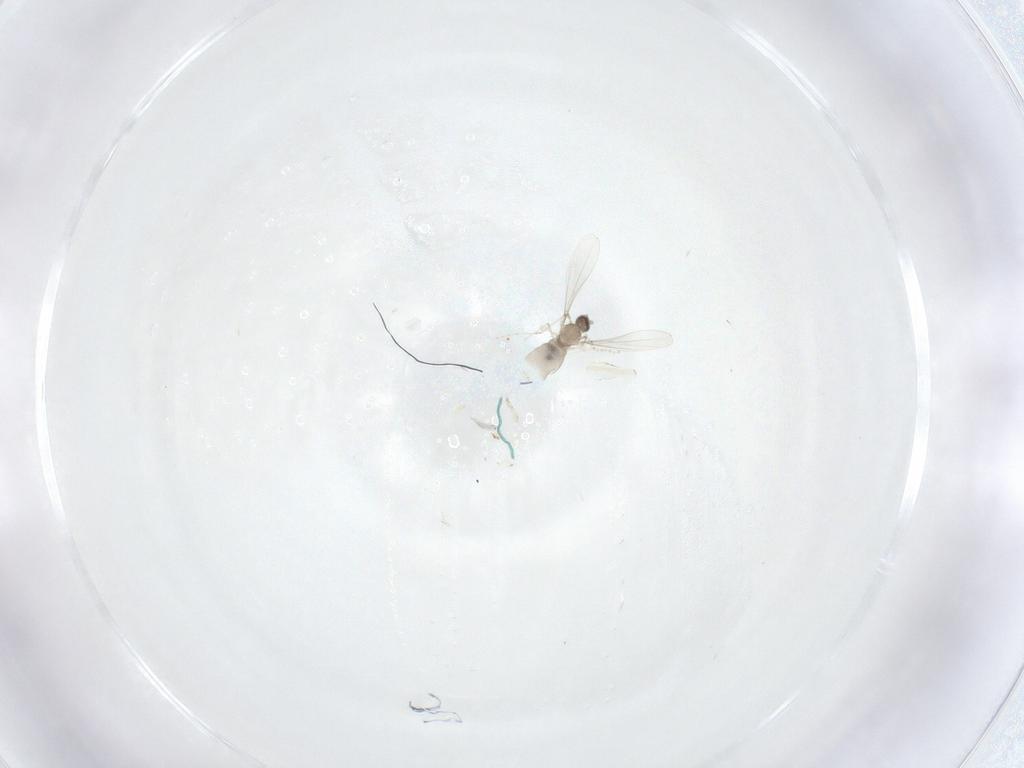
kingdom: Animalia
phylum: Arthropoda
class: Insecta
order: Diptera
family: Cecidomyiidae
